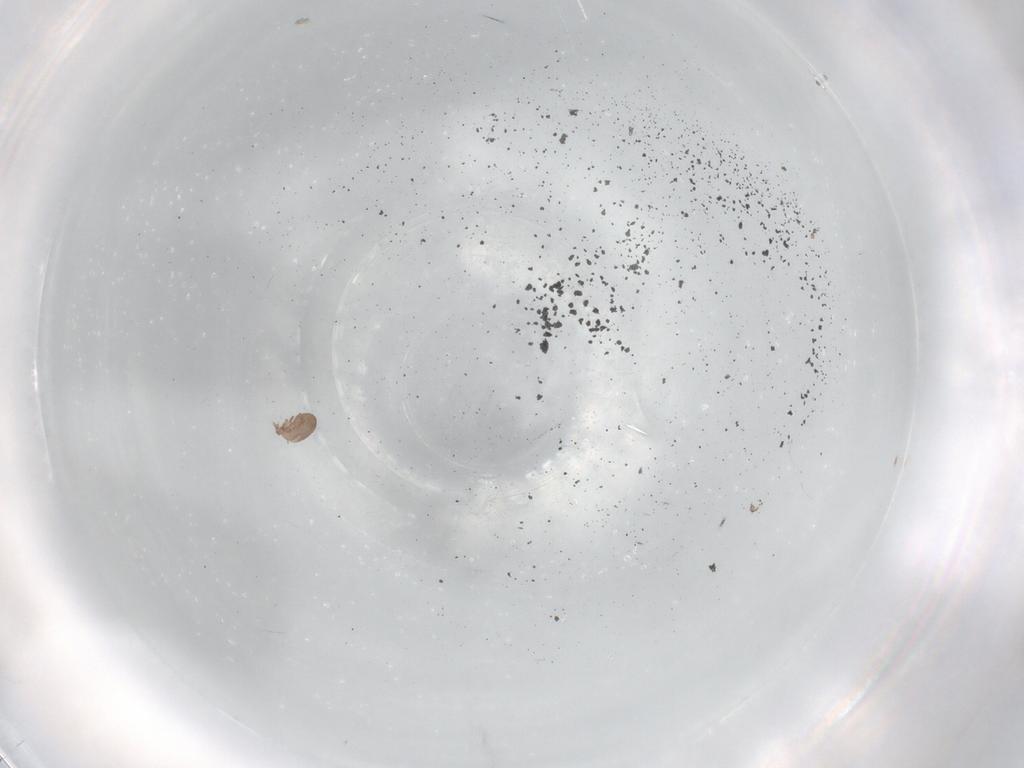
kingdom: Animalia
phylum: Arthropoda
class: Arachnida
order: Sarcoptiformes
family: Eremaeidae
